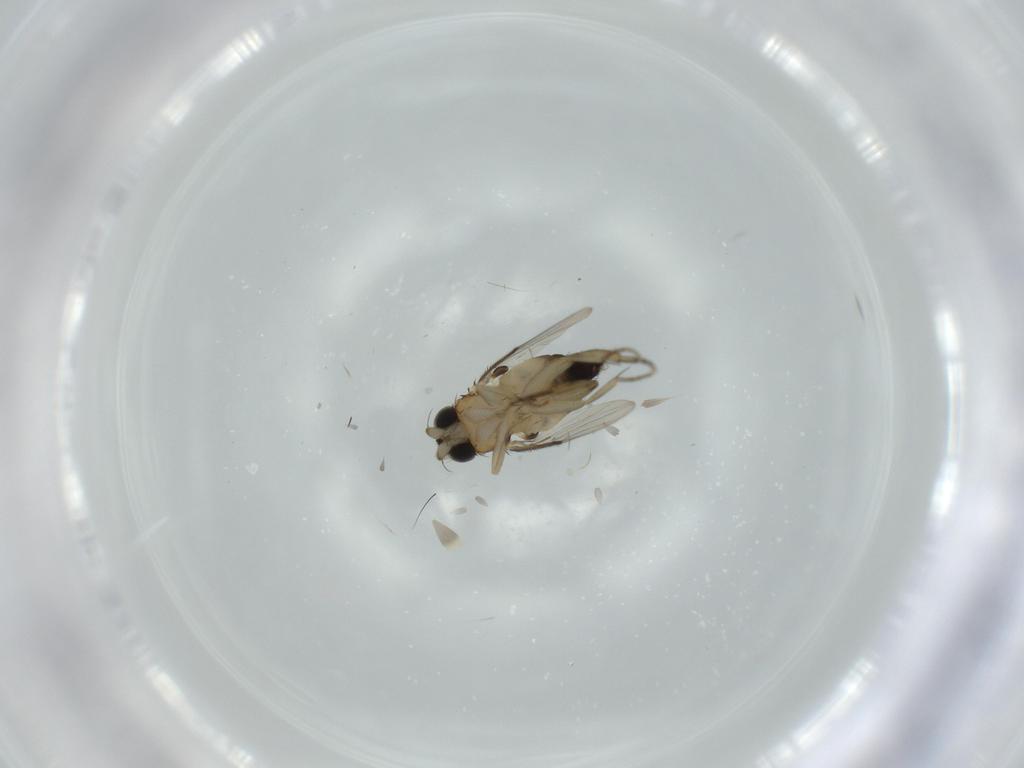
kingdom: Animalia
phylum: Arthropoda
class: Insecta
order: Diptera
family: Phoridae
